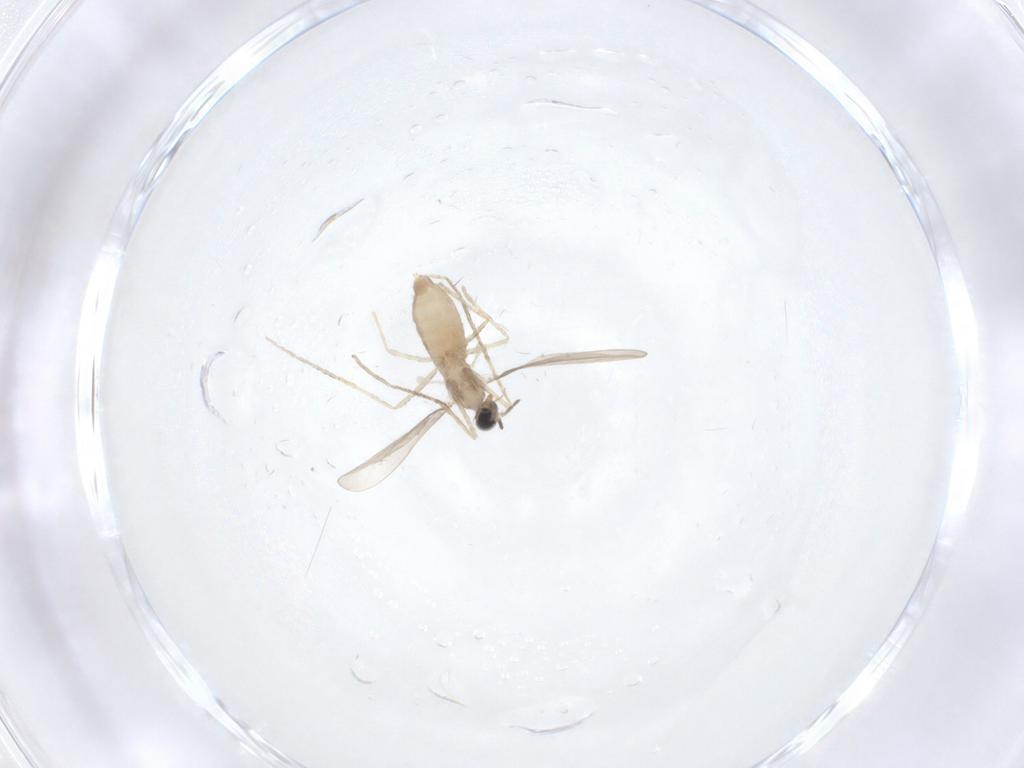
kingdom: Animalia
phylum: Arthropoda
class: Insecta
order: Diptera
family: Cecidomyiidae
